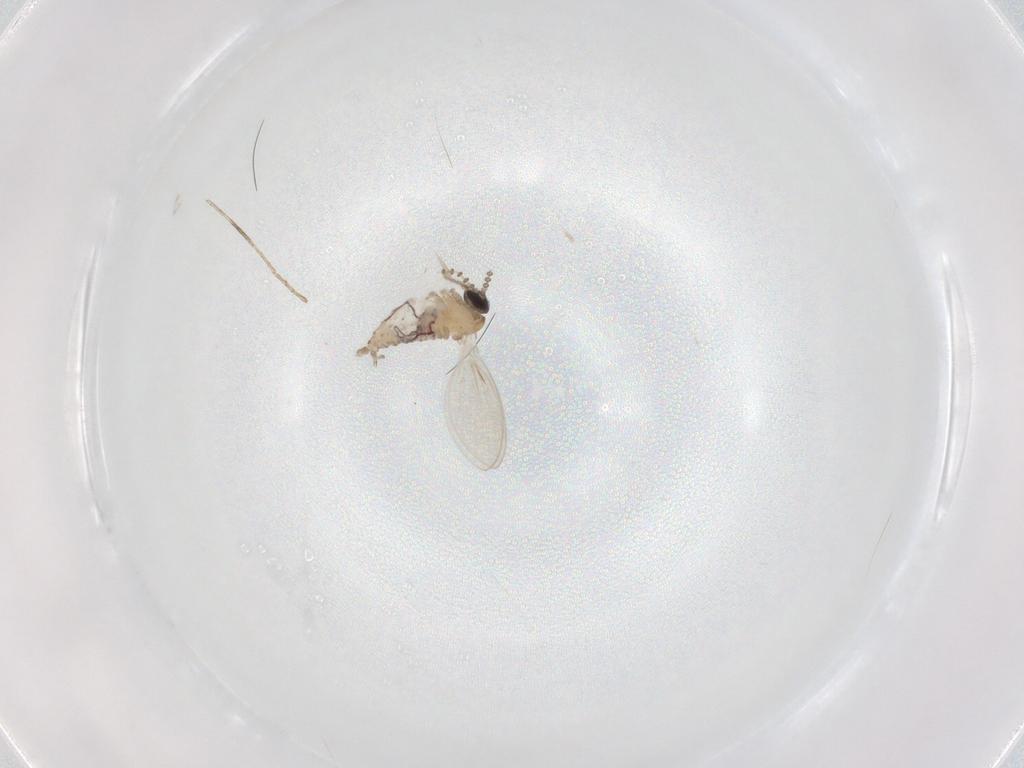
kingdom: Animalia
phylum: Arthropoda
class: Insecta
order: Diptera
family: Psychodidae
